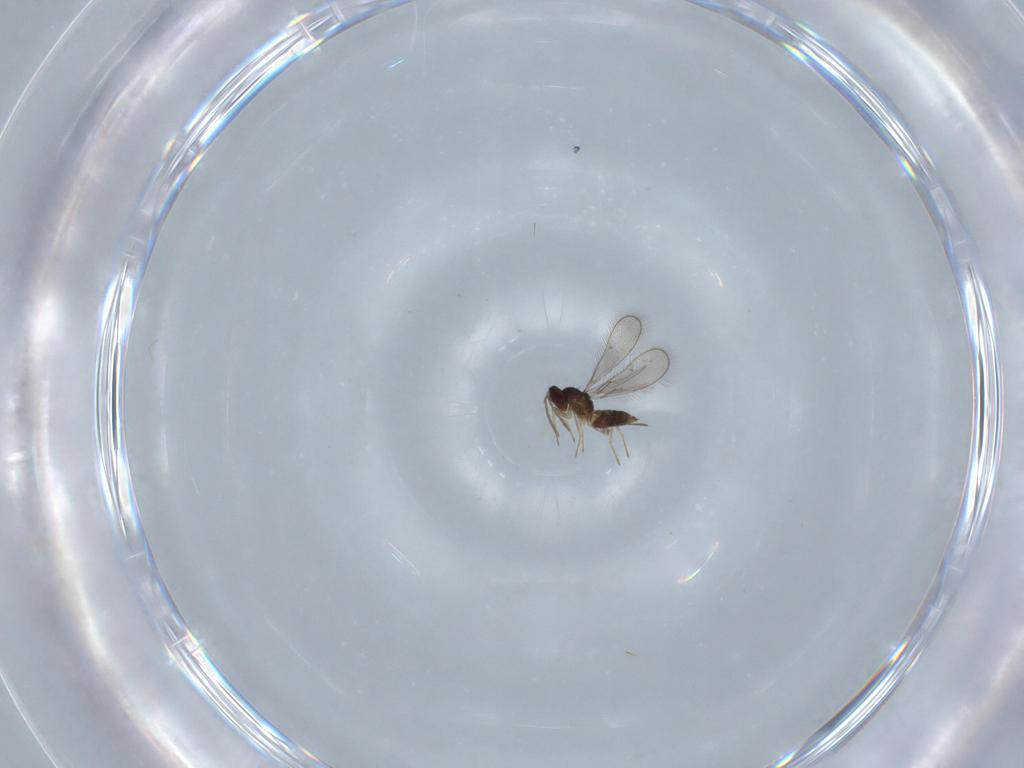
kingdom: Animalia
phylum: Arthropoda
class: Insecta
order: Hymenoptera
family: Eulophidae
